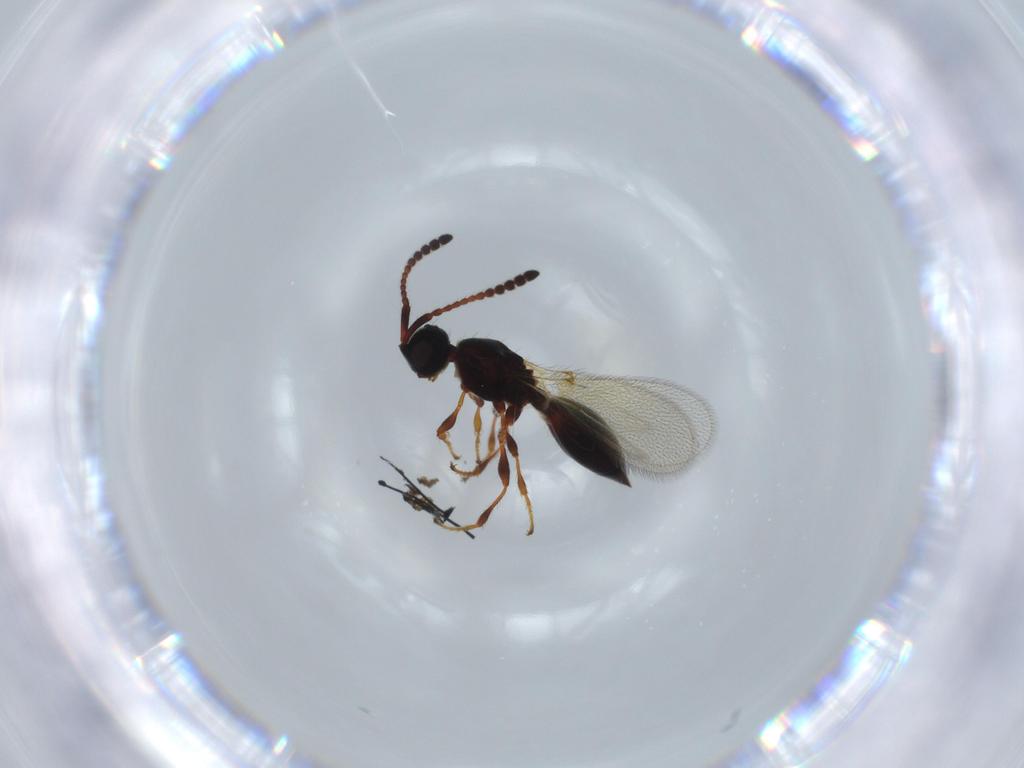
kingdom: Animalia
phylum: Arthropoda
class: Insecta
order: Hymenoptera
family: Diapriidae
